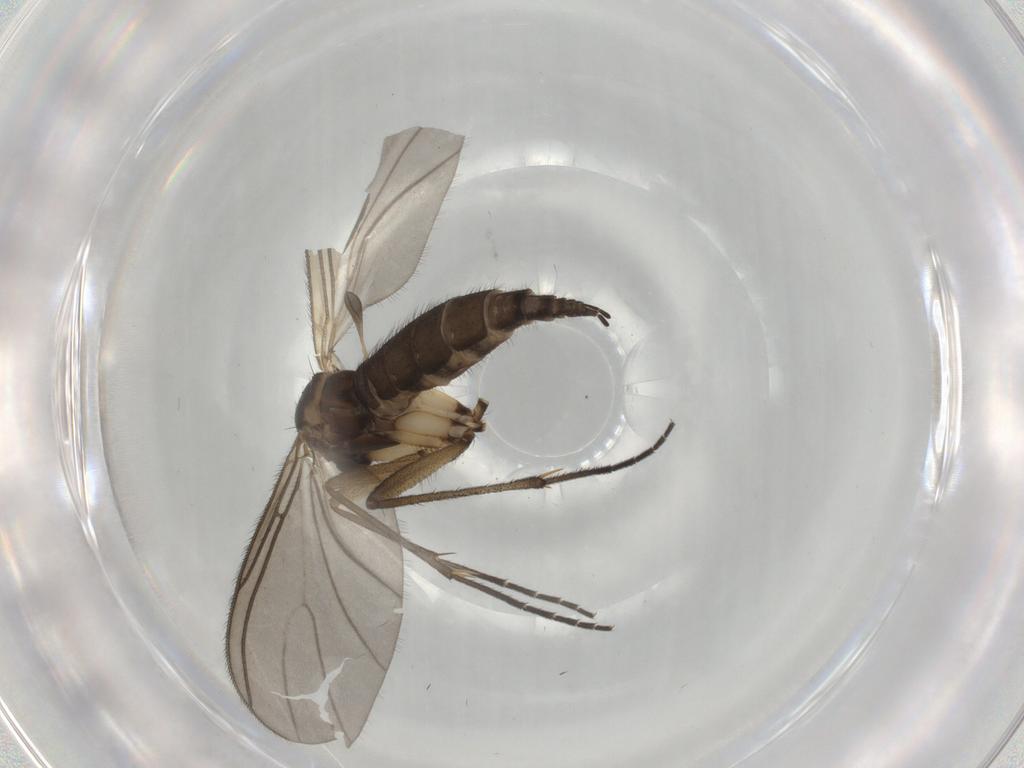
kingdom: Animalia
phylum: Arthropoda
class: Insecta
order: Diptera
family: Sciaridae
